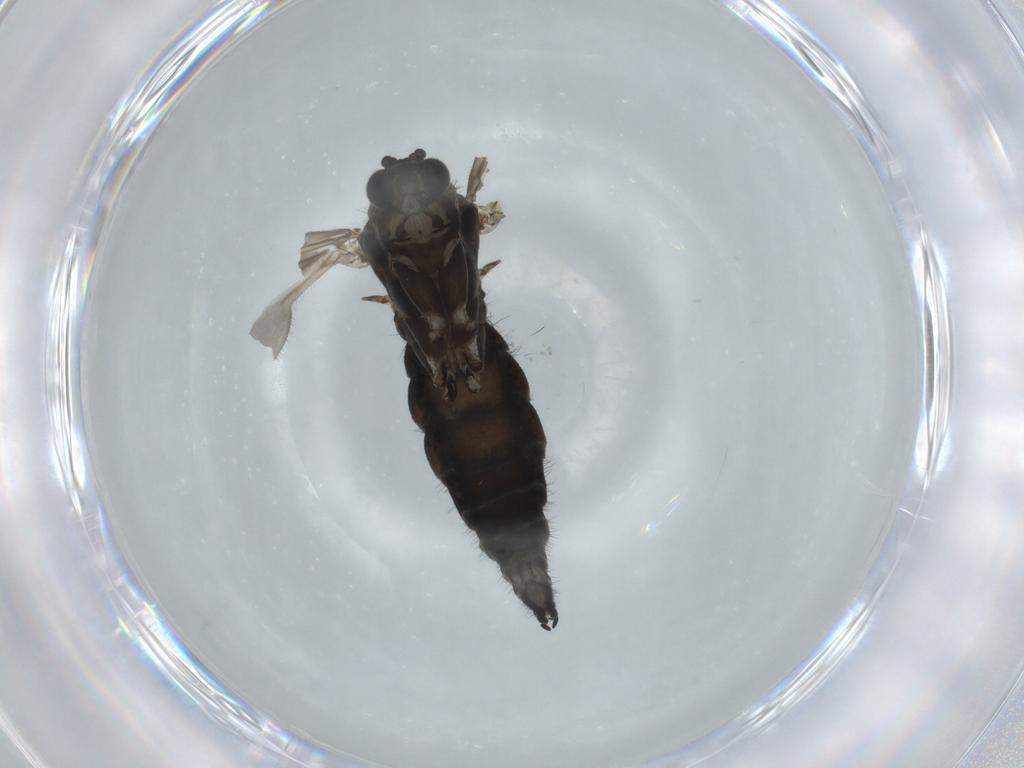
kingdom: Animalia
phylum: Arthropoda
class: Insecta
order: Diptera
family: Sciaridae
